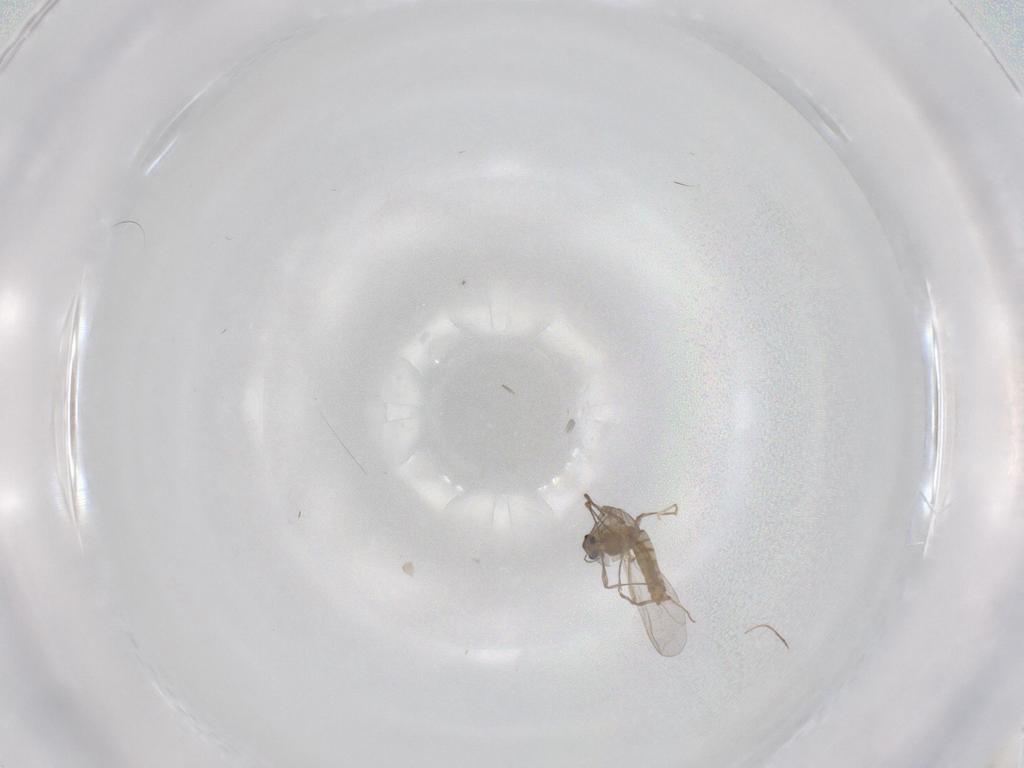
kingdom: Animalia
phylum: Arthropoda
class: Insecta
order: Diptera
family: Chironomidae
